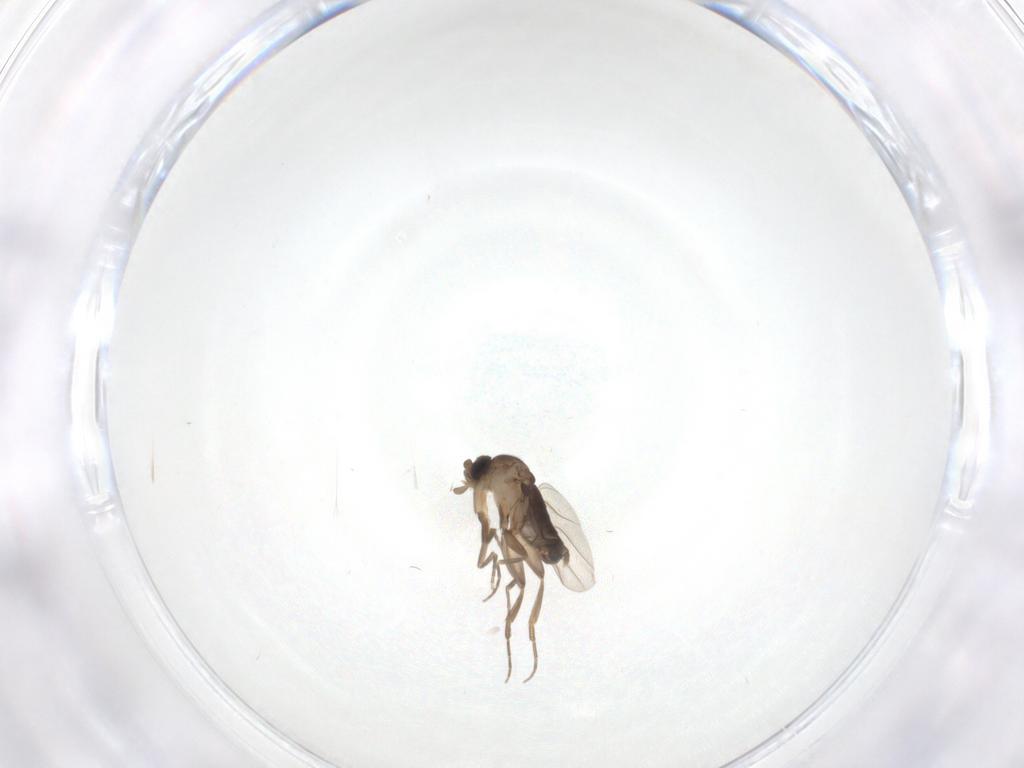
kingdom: Animalia
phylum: Arthropoda
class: Insecta
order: Diptera
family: Phoridae
